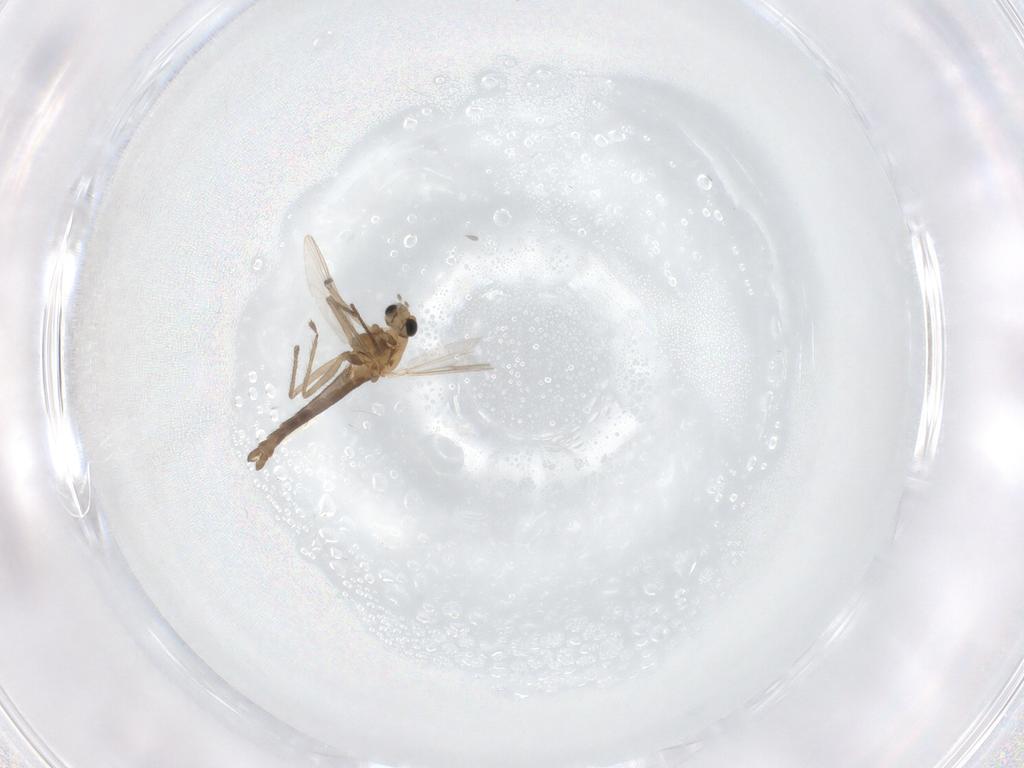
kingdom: Animalia
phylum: Arthropoda
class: Insecta
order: Diptera
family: Chironomidae
